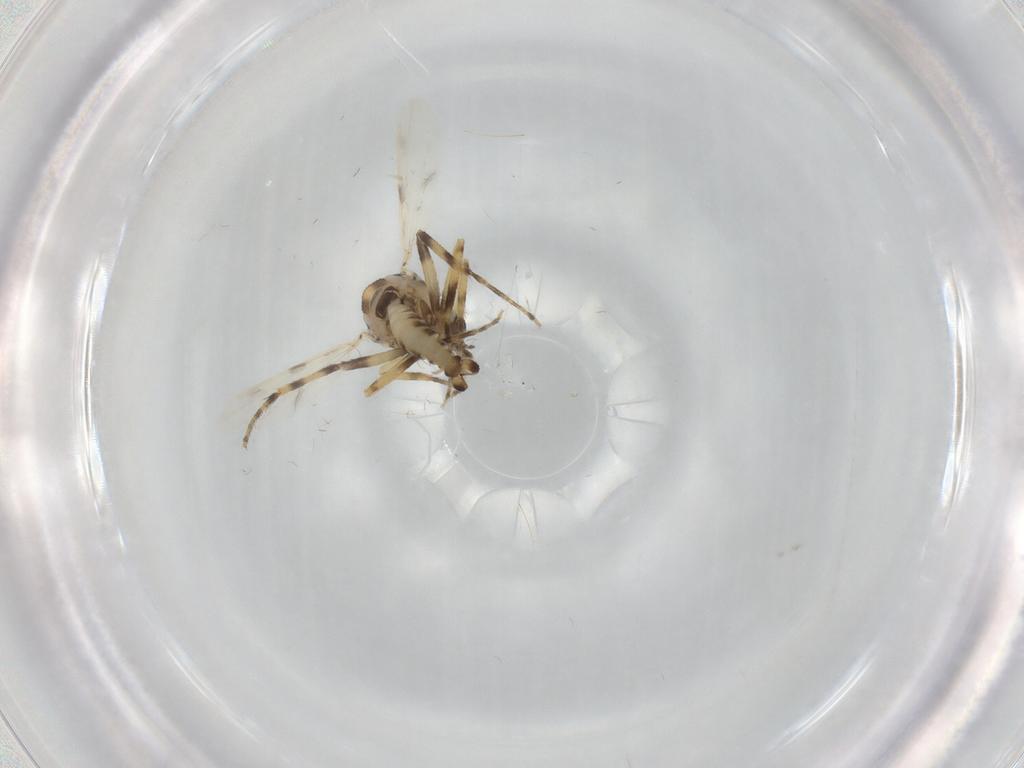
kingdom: Animalia
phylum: Arthropoda
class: Insecta
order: Diptera
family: Ceratopogonidae
